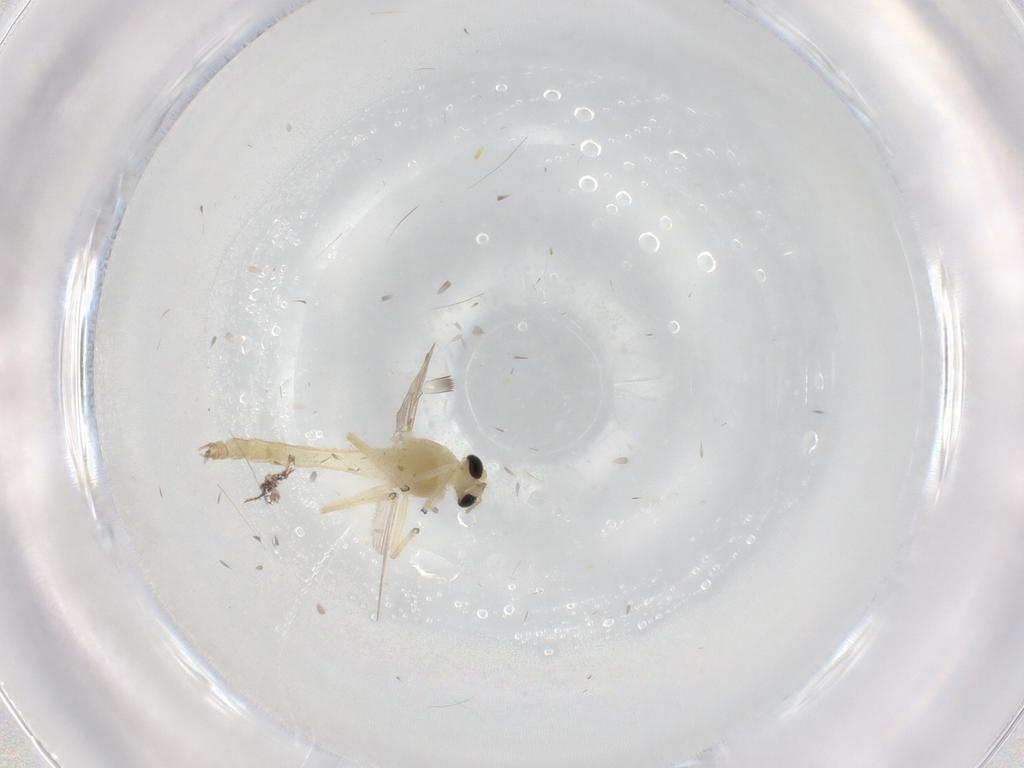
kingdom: Animalia
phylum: Arthropoda
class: Insecta
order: Diptera
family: Chironomidae
